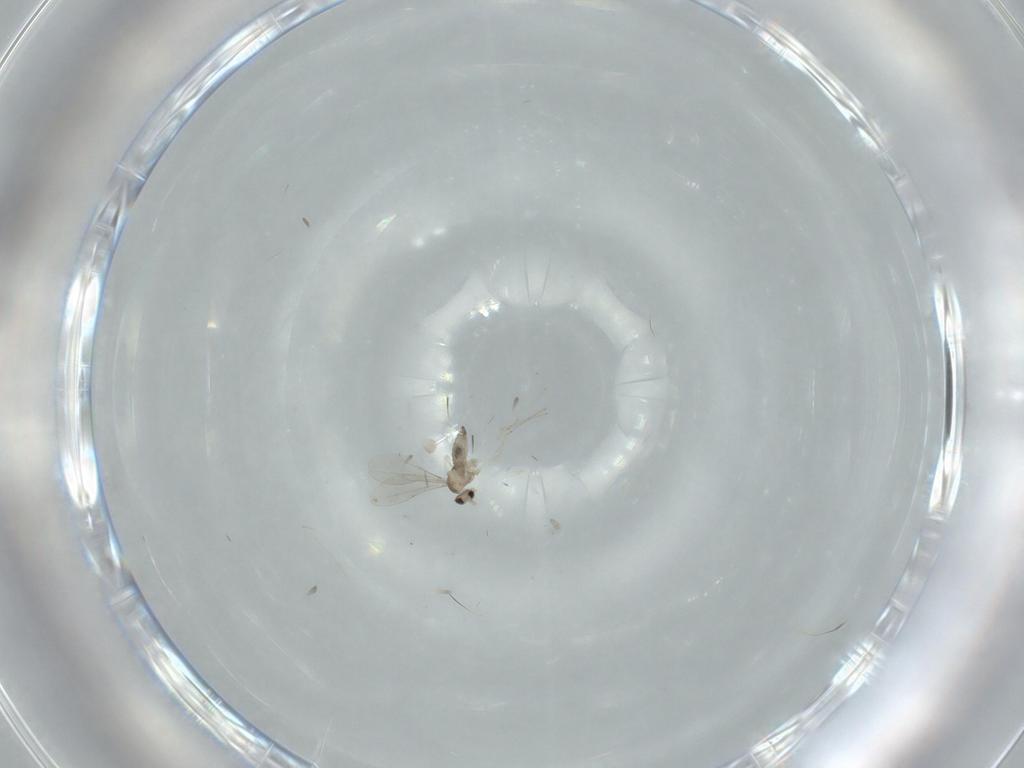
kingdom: Animalia
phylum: Arthropoda
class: Insecta
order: Diptera
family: Cecidomyiidae
